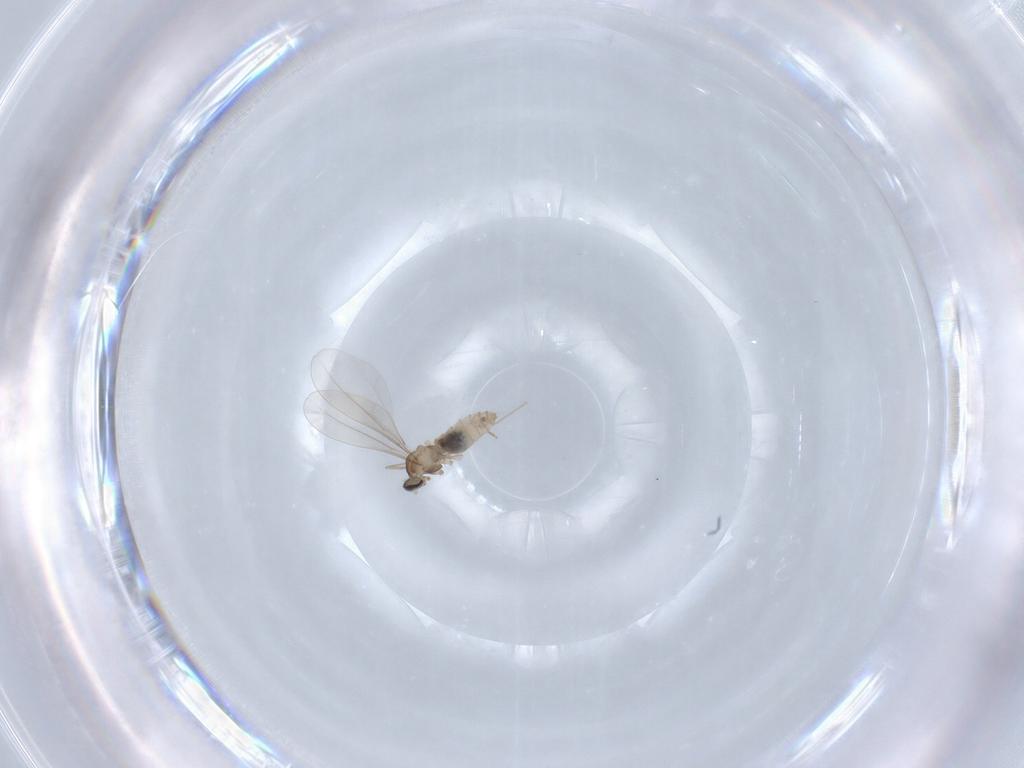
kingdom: Animalia
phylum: Arthropoda
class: Insecta
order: Diptera
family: Cecidomyiidae
